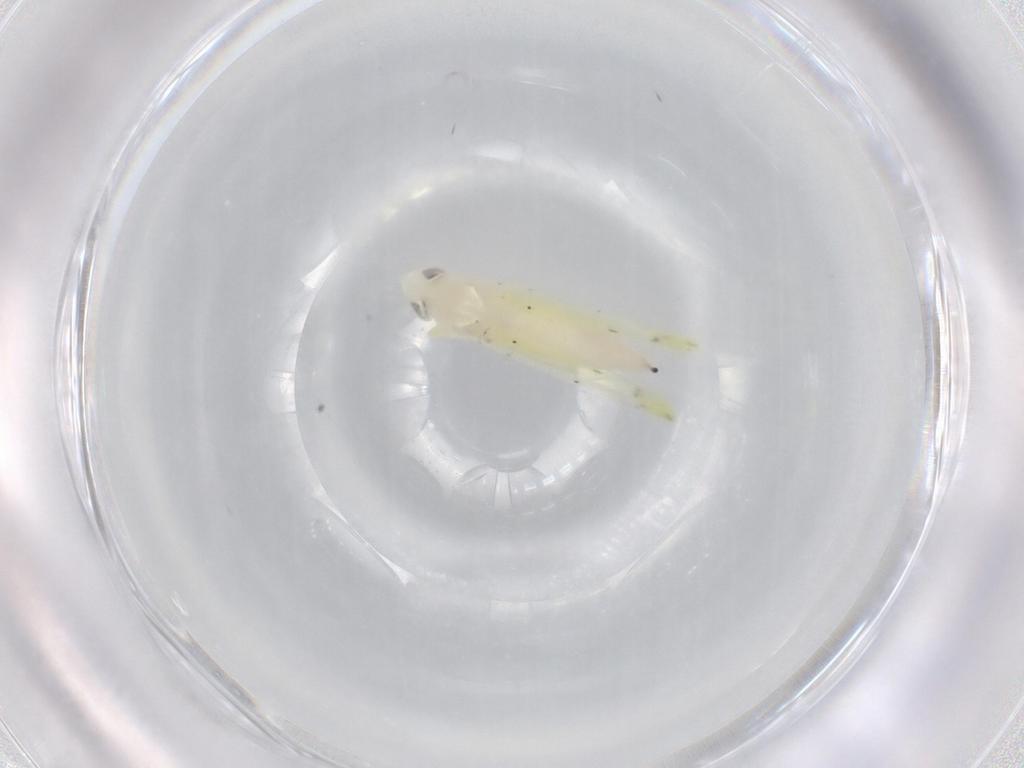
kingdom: Animalia
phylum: Arthropoda
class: Insecta
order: Hemiptera
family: Cicadellidae
